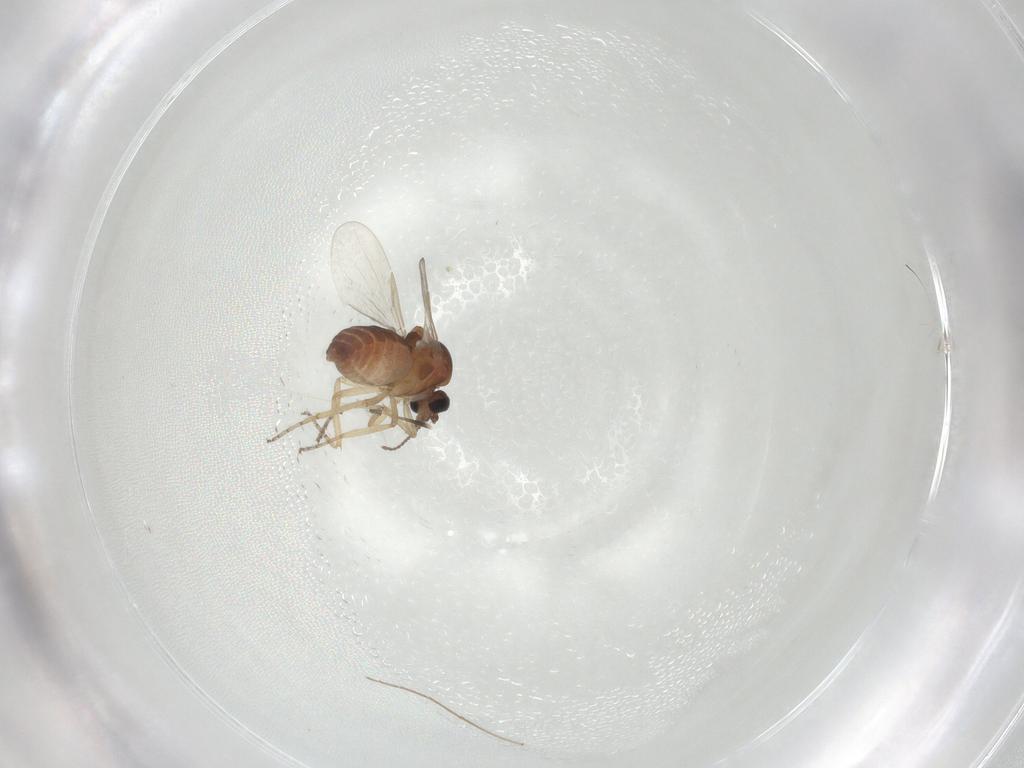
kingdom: Animalia
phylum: Arthropoda
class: Insecta
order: Diptera
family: Ceratopogonidae
